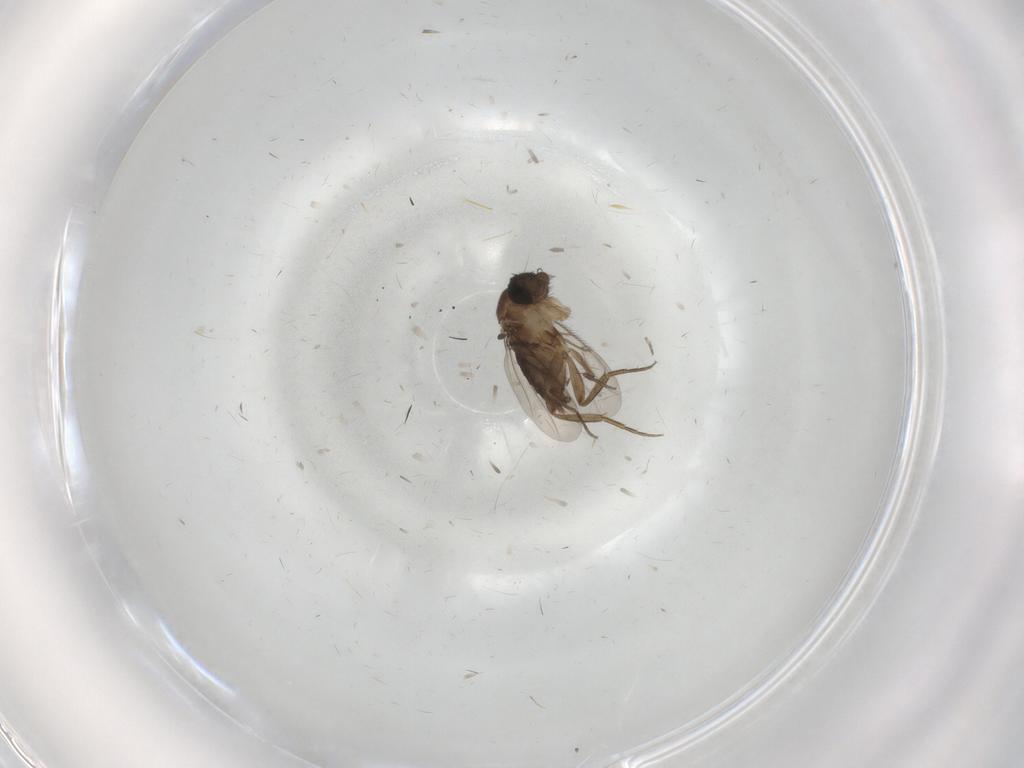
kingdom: Animalia
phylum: Arthropoda
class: Insecta
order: Diptera
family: Phoridae
